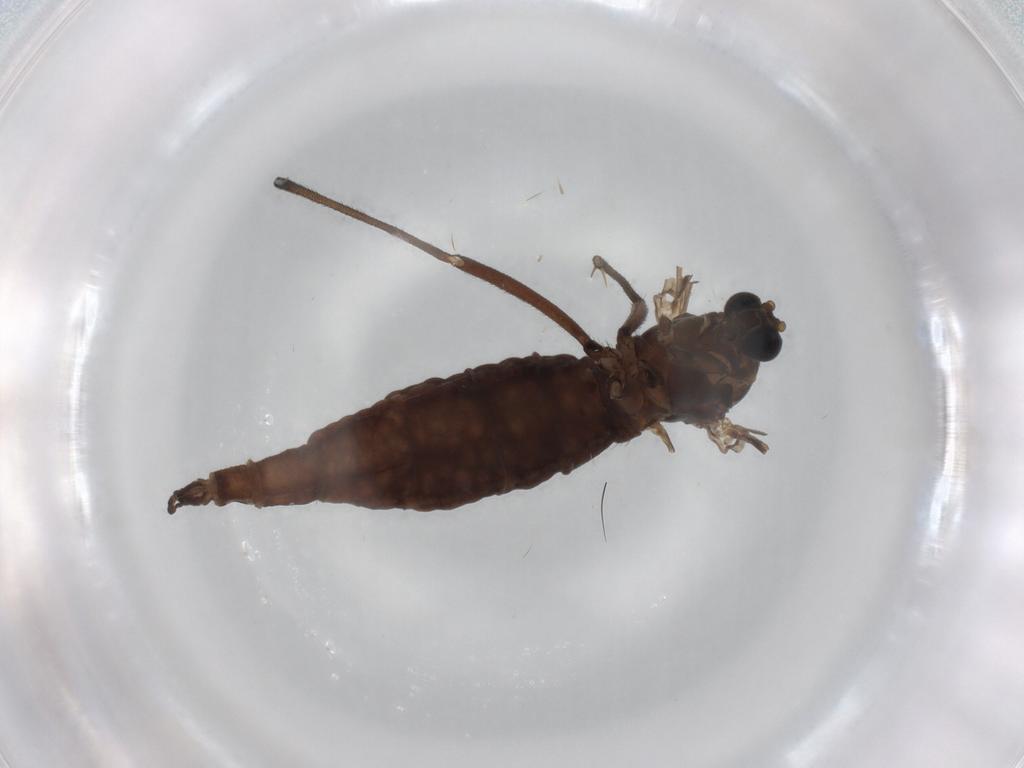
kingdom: Animalia
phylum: Arthropoda
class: Insecta
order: Diptera
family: Sciaridae
